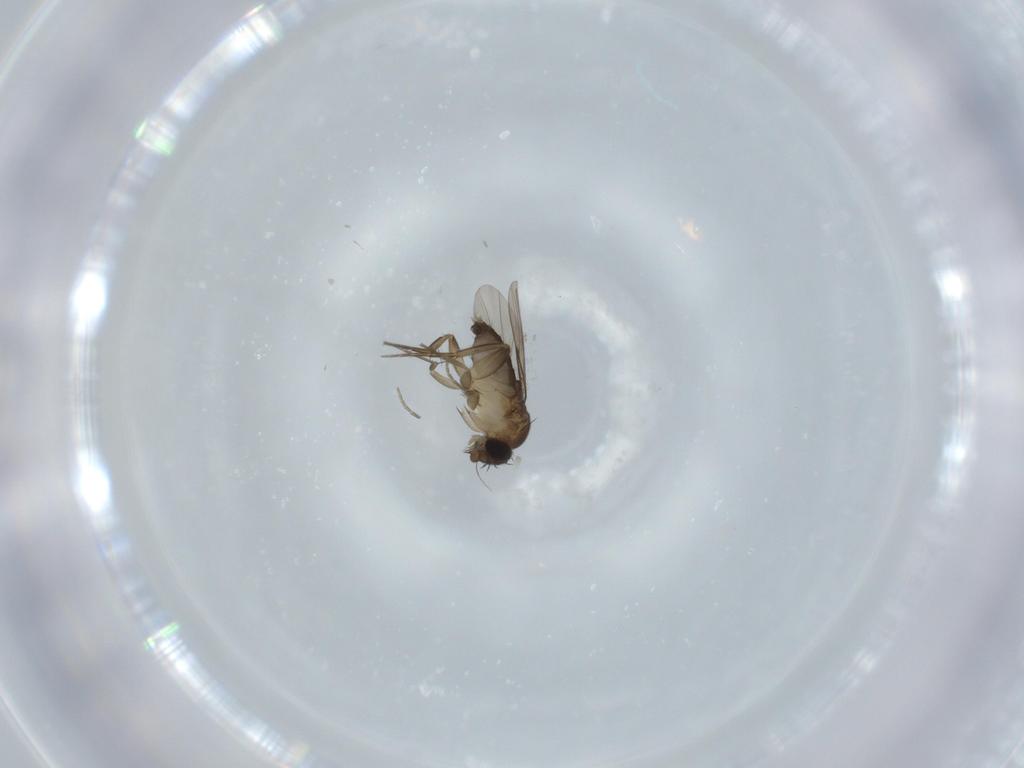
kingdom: Animalia
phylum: Arthropoda
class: Insecta
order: Diptera
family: Phoridae
